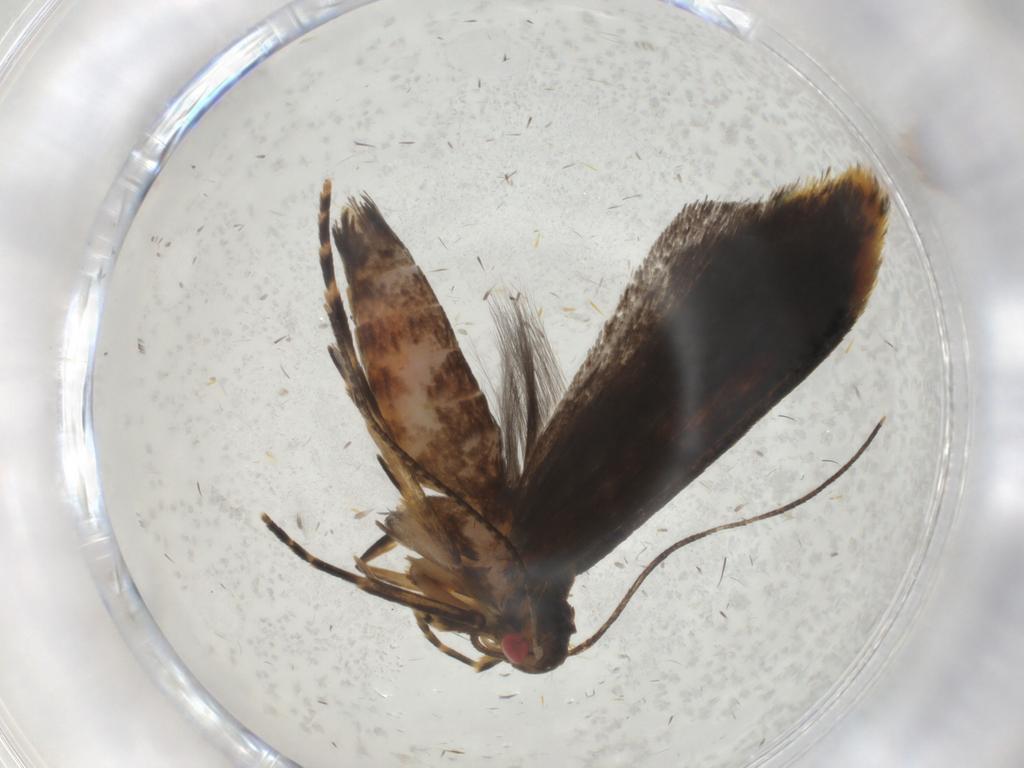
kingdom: Animalia
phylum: Arthropoda
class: Insecta
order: Lepidoptera
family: Gelechiidae
